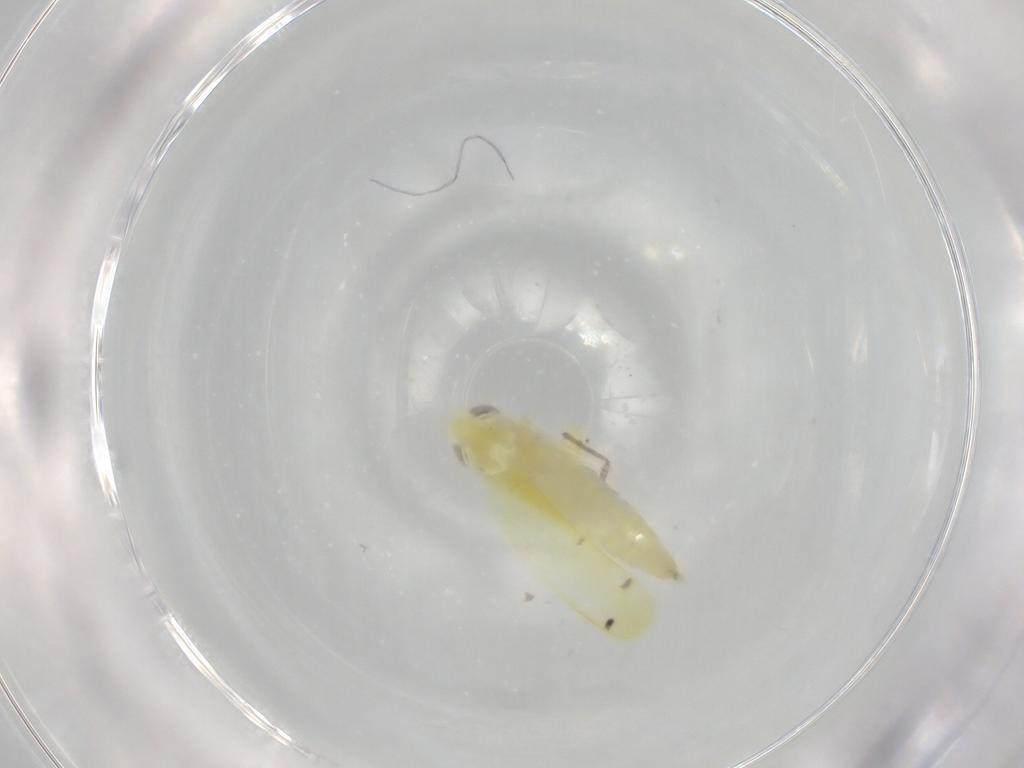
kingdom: Animalia
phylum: Arthropoda
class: Insecta
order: Hemiptera
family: Cicadellidae
